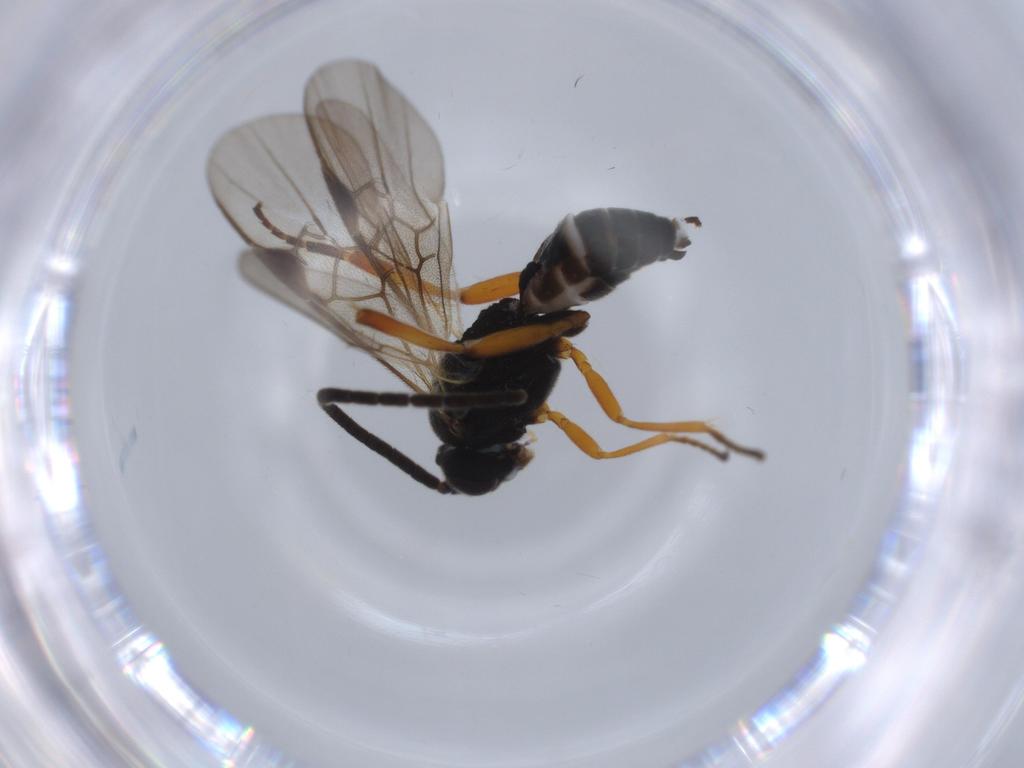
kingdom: Animalia
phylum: Arthropoda
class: Insecta
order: Hymenoptera
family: Braconidae
